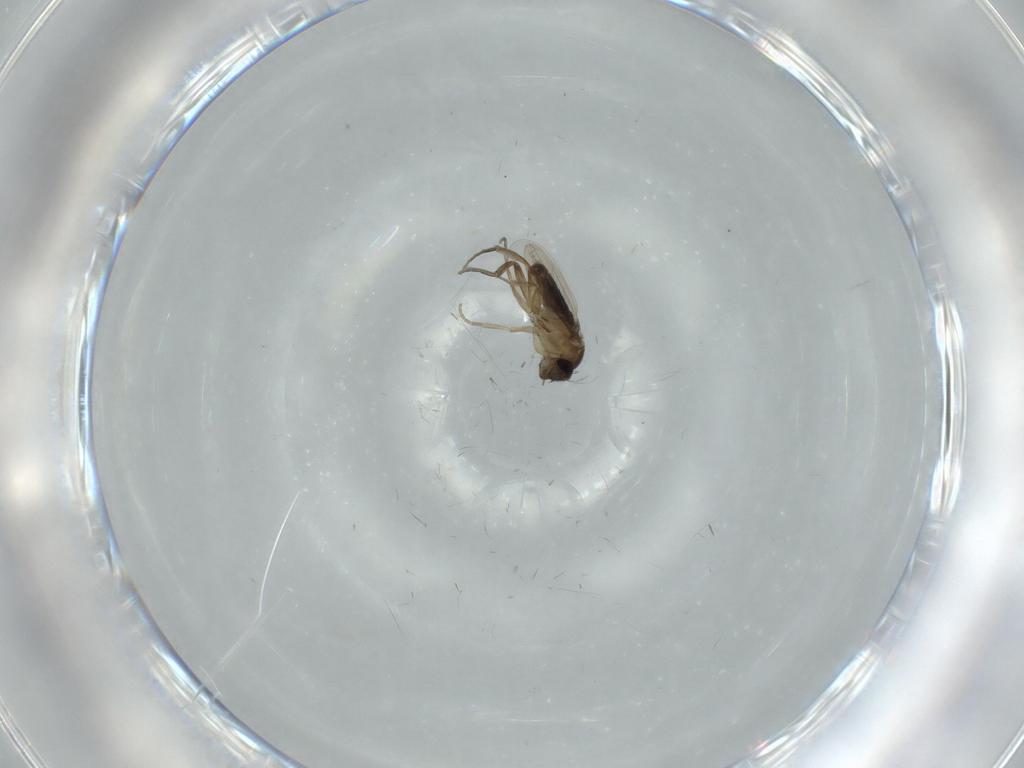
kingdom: Animalia
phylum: Arthropoda
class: Insecta
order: Diptera
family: Phoridae
